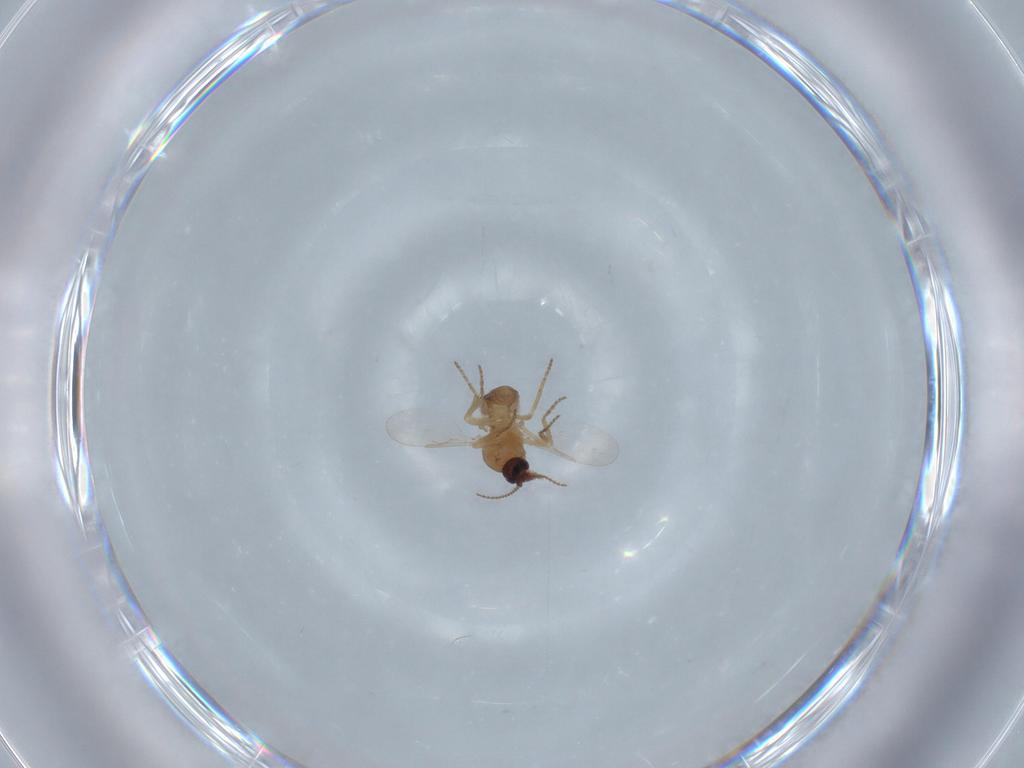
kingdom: Animalia
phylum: Arthropoda
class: Insecta
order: Diptera
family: Ceratopogonidae
